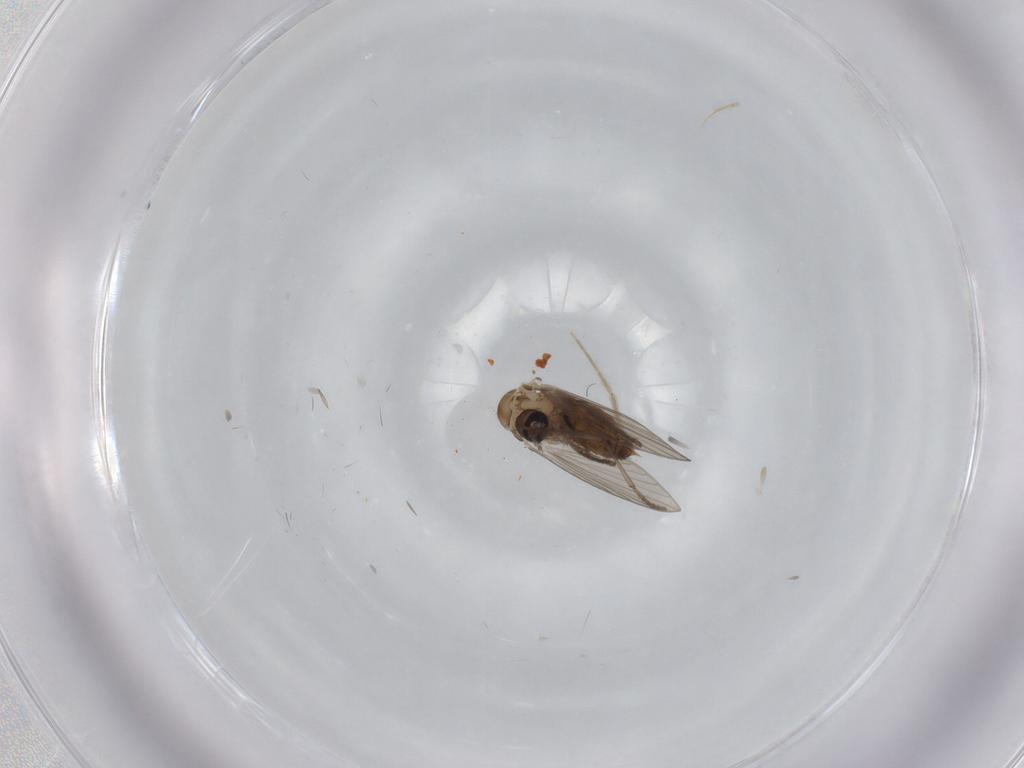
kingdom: Animalia
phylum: Arthropoda
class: Insecta
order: Diptera
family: Psychodidae
